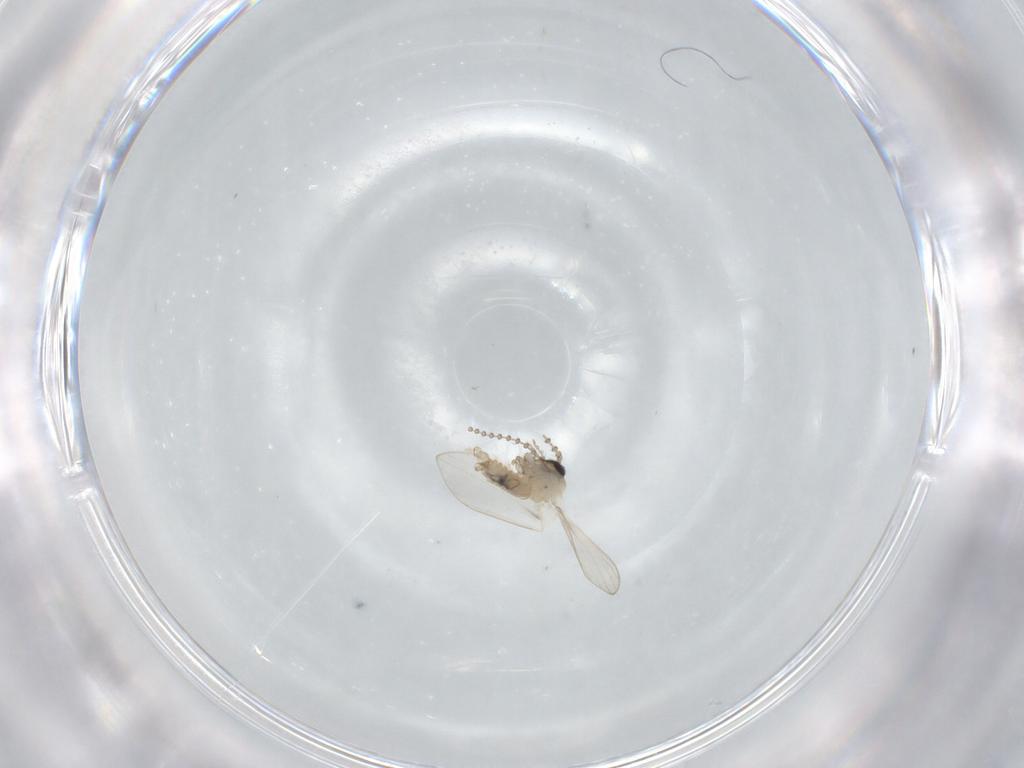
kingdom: Animalia
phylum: Arthropoda
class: Insecta
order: Diptera
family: Psychodidae
